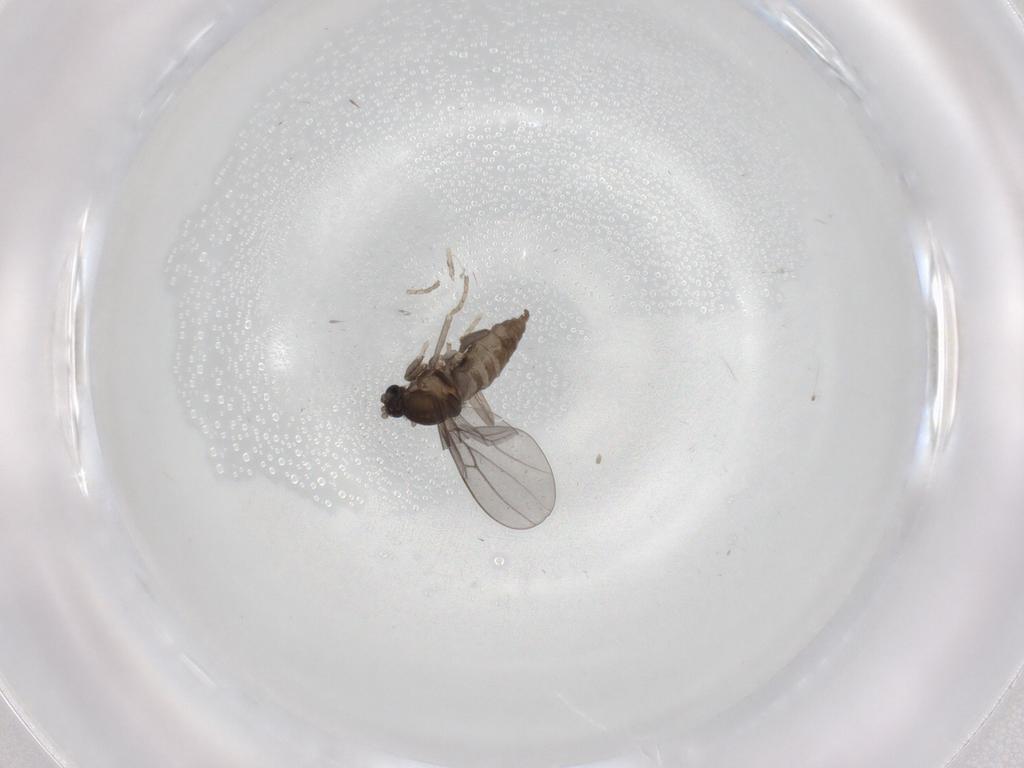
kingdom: Animalia
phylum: Arthropoda
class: Insecta
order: Diptera
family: Cecidomyiidae
